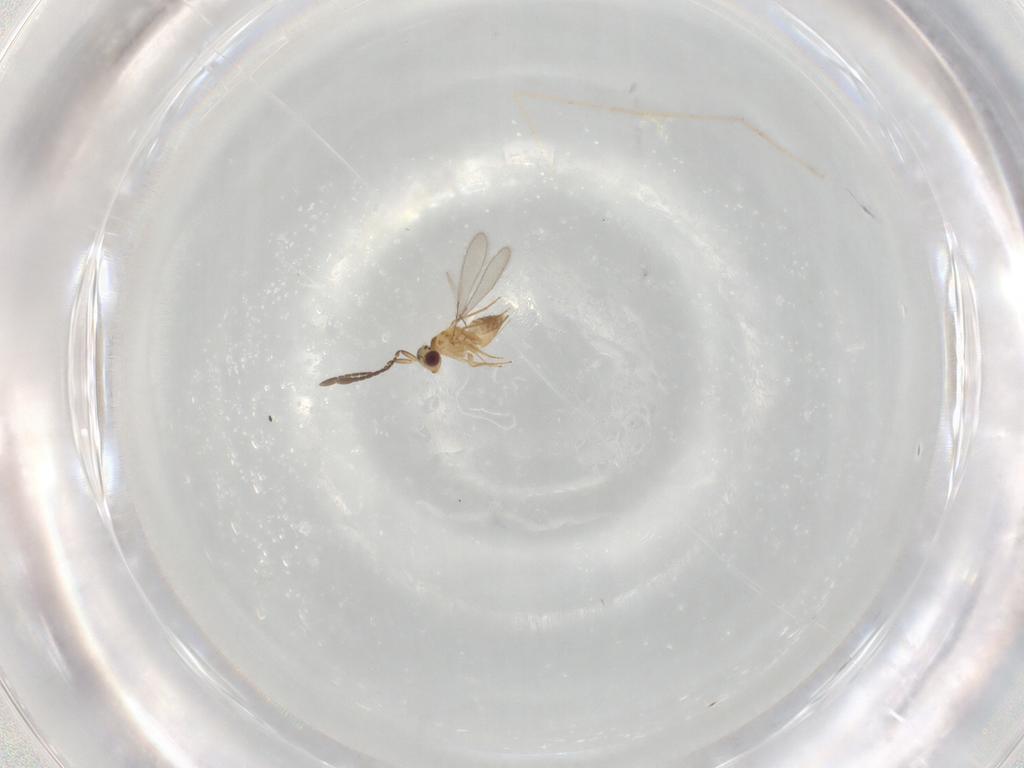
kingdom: Animalia
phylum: Arthropoda
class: Insecta
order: Hymenoptera
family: Mymaridae
